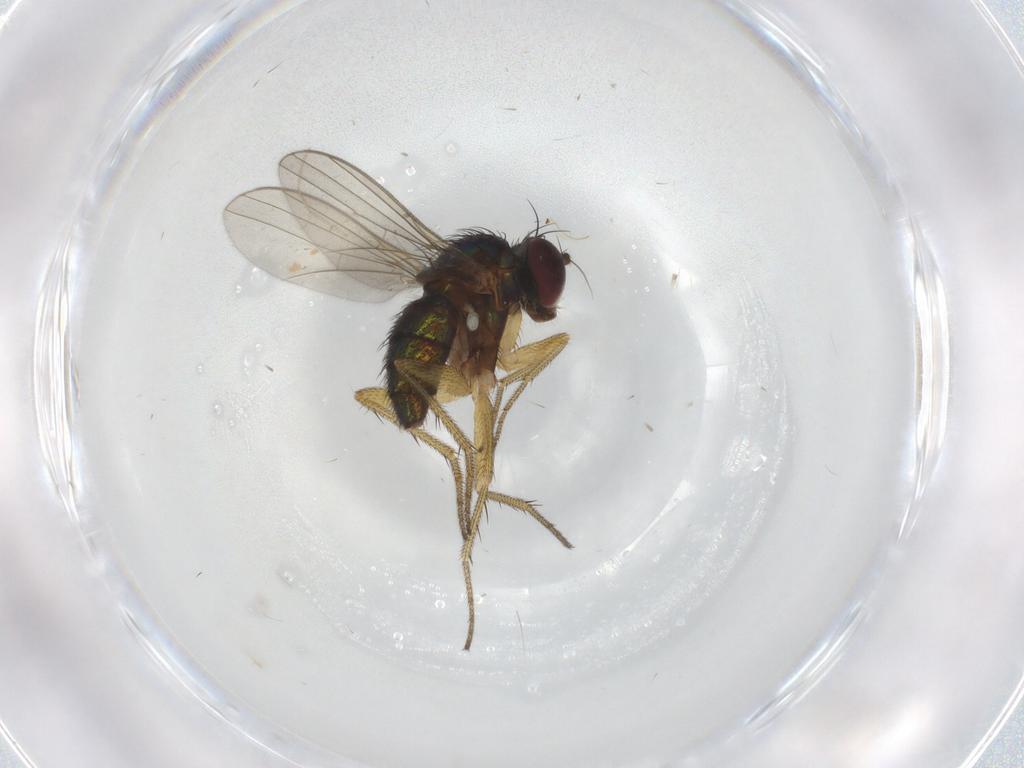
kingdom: Animalia
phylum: Arthropoda
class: Insecta
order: Diptera
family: Chironomidae
